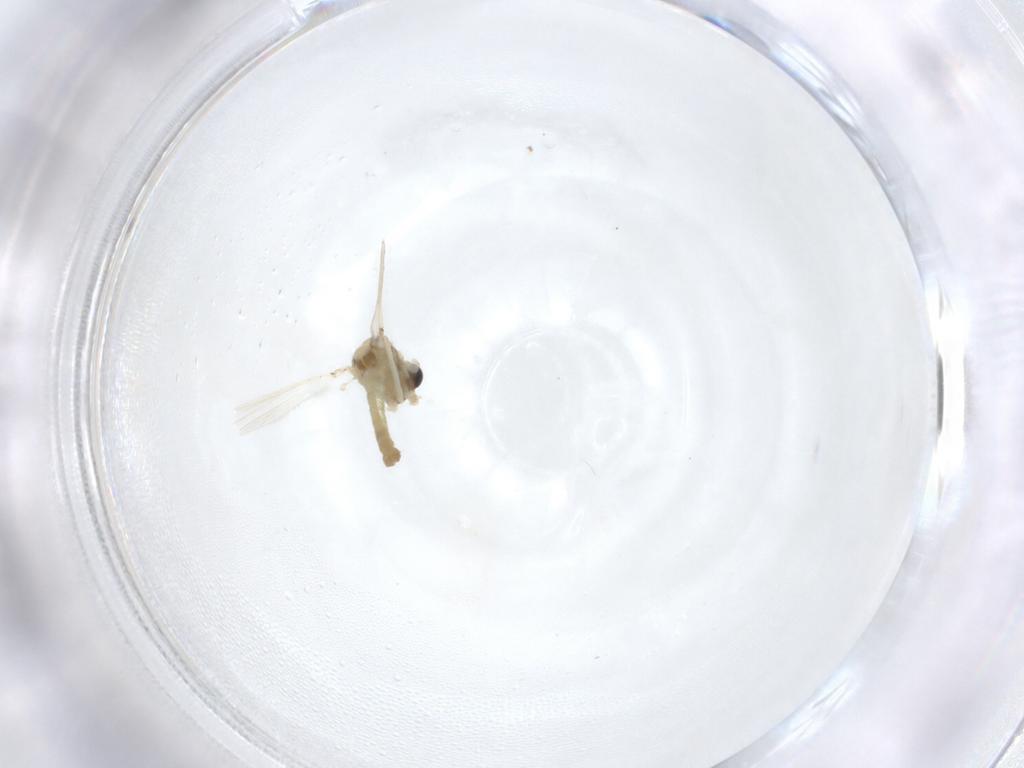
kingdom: Animalia
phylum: Arthropoda
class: Insecta
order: Diptera
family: Chironomidae
